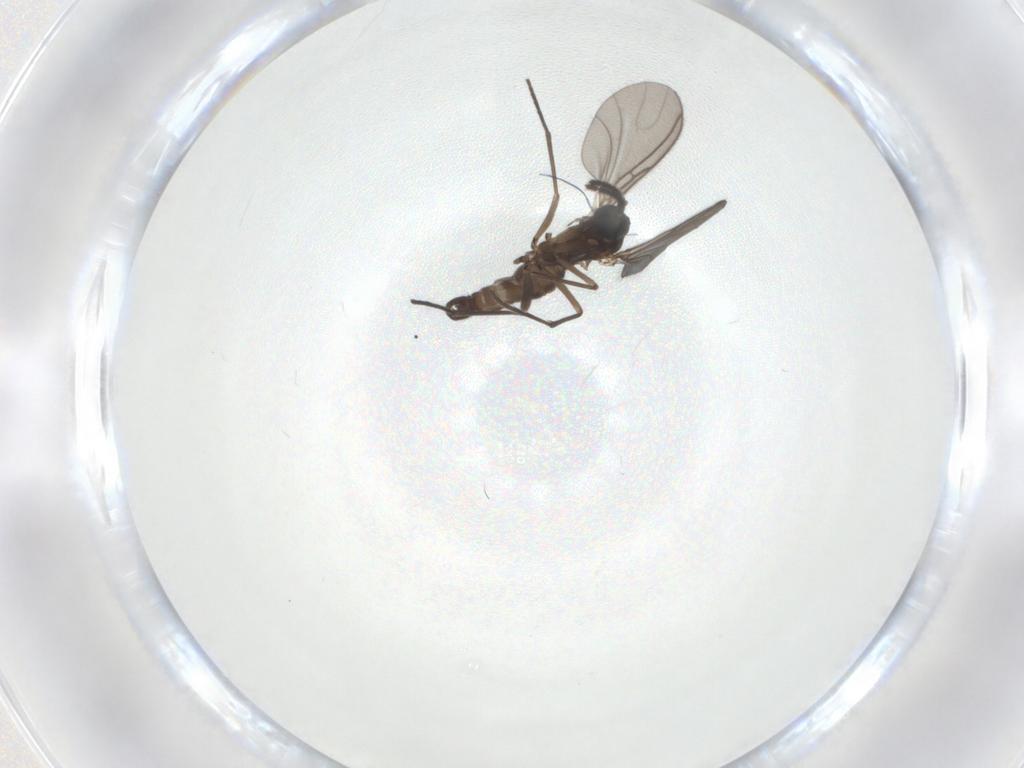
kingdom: Animalia
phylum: Arthropoda
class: Insecta
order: Diptera
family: Sciaridae
